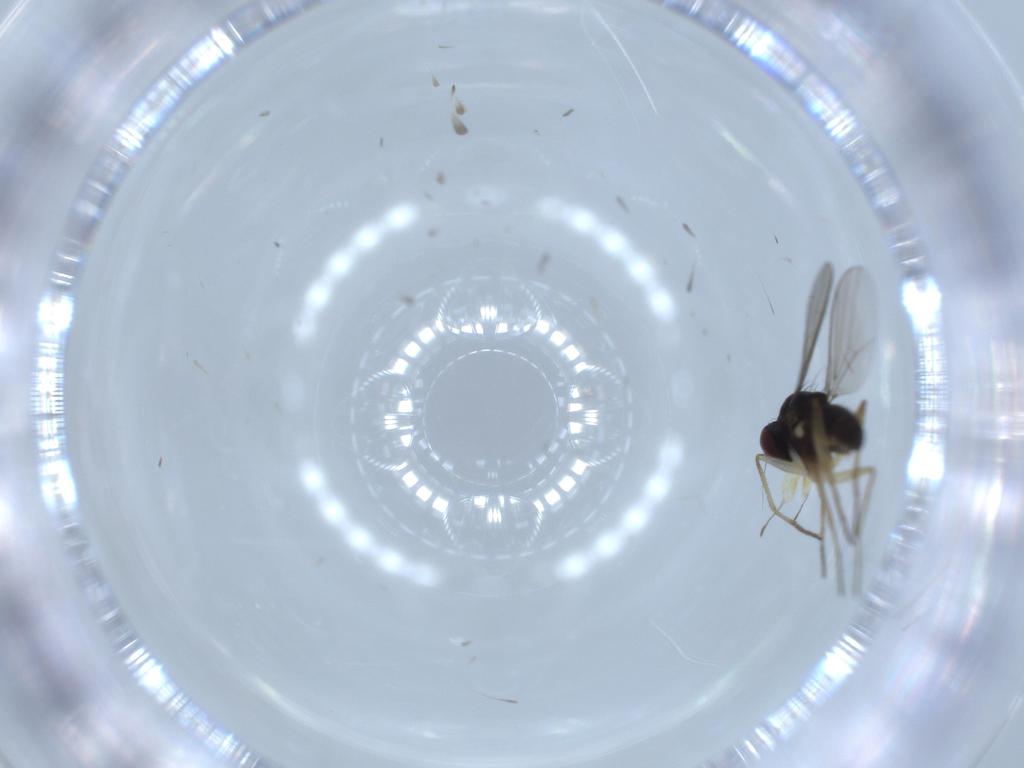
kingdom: Animalia
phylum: Arthropoda
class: Insecta
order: Diptera
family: Dolichopodidae
